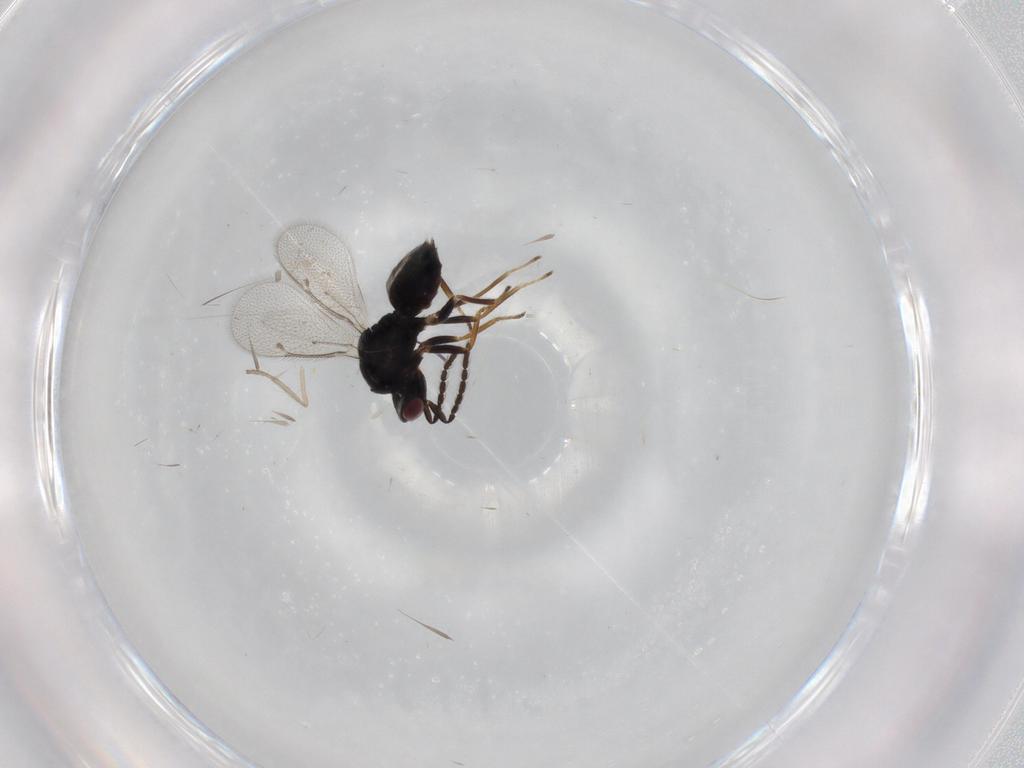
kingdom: Animalia
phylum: Arthropoda
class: Insecta
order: Hymenoptera
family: Eulophidae
